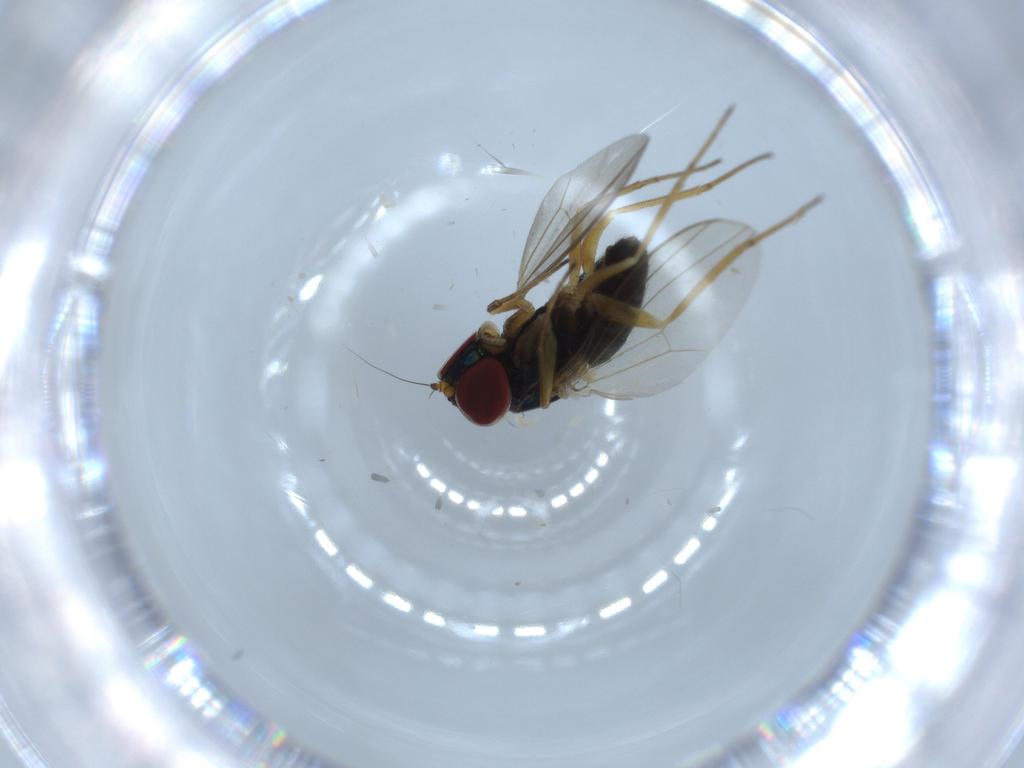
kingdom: Animalia
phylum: Arthropoda
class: Insecta
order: Diptera
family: Dolichopodidae
